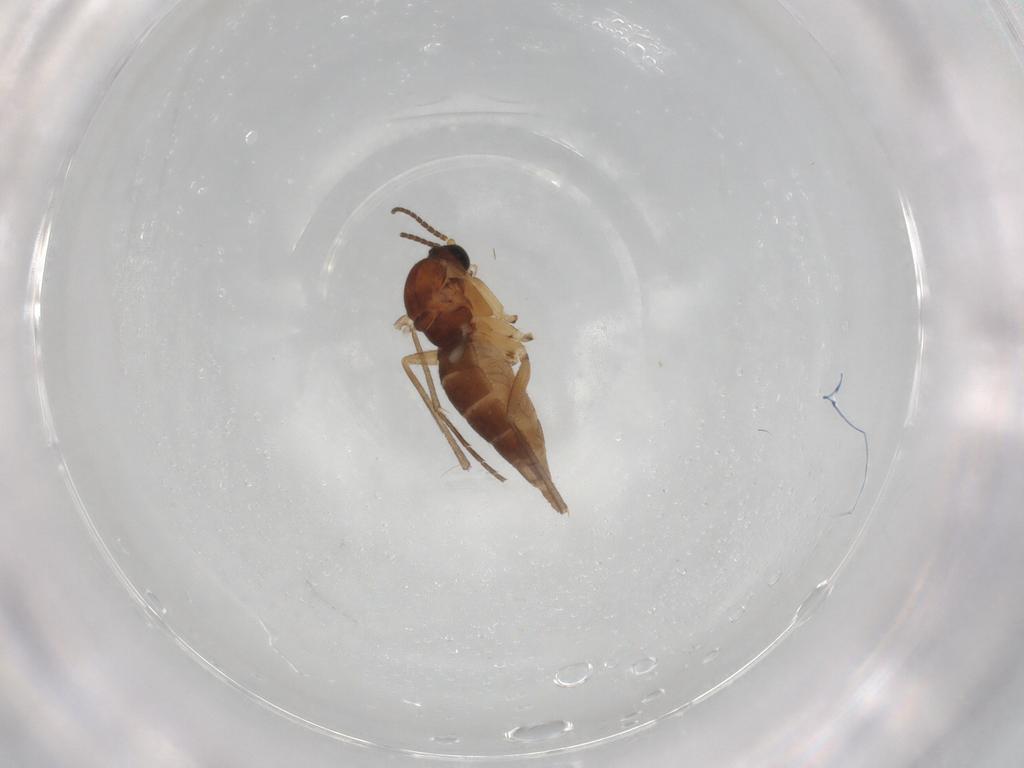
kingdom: Animalia
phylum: Arthropoda
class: Insecta
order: Diptera
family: Sciaridae
